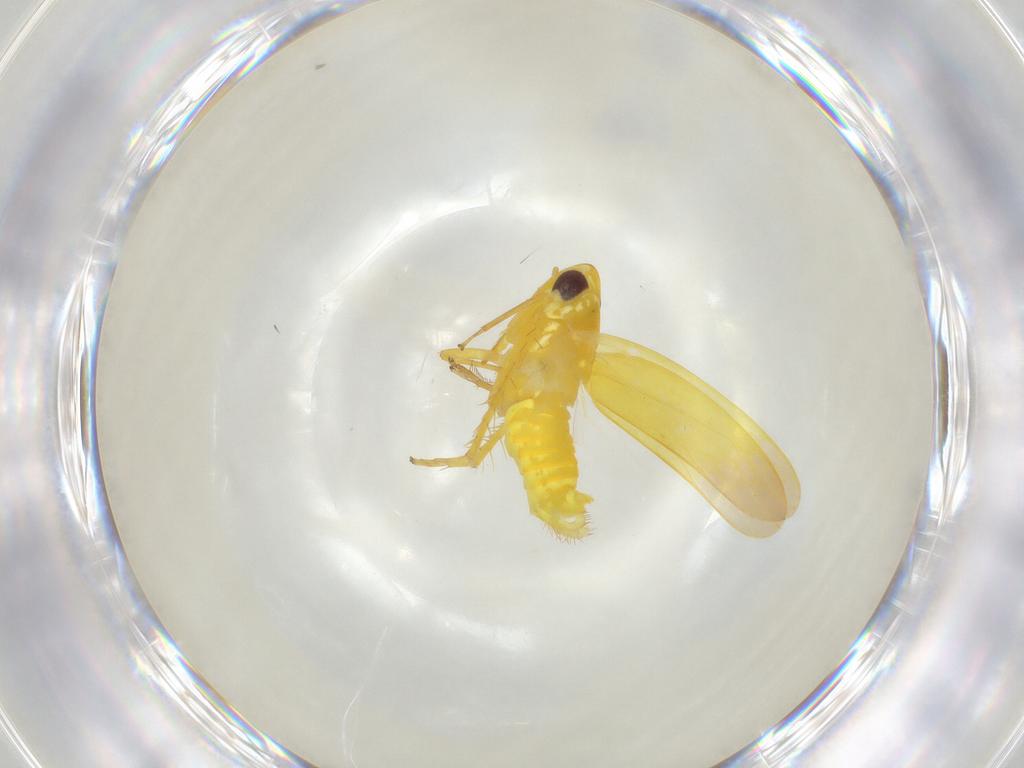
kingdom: Animalia
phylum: Arthropoda
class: Insecta
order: Hemiptera
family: Cicadellidae
